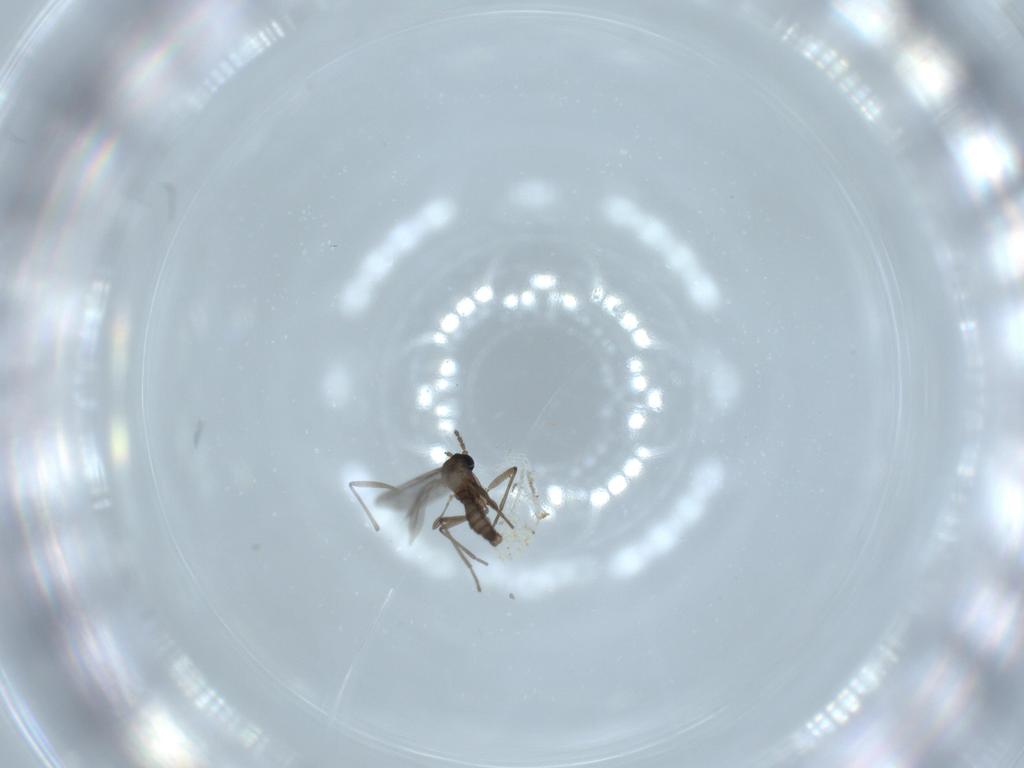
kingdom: Animalia
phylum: Arthropoda
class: Insecta
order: Diptera
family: Sciaridae
